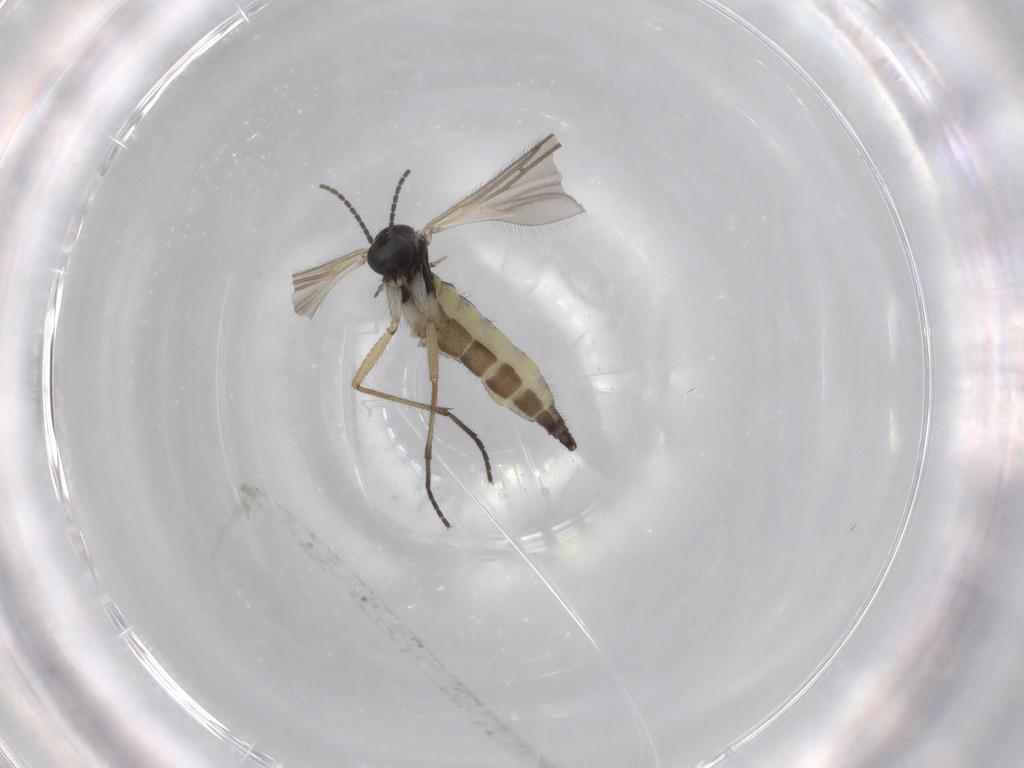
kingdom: Animalia
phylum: Arthropoda
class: Insecta
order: Diptera
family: Sciaridae
